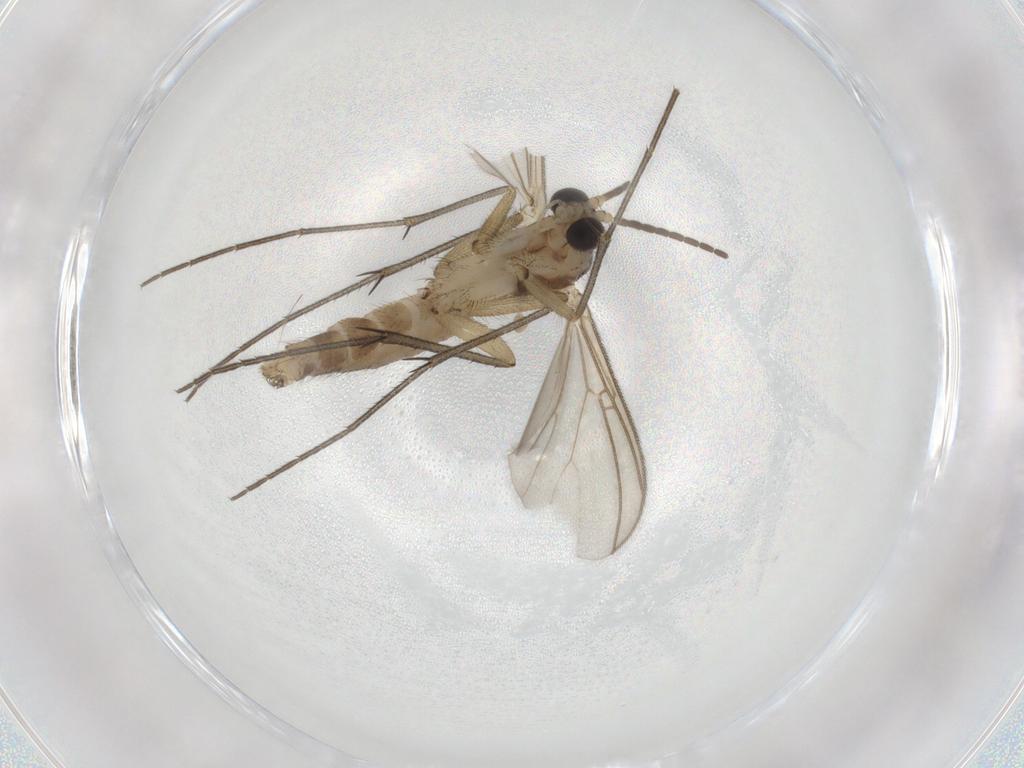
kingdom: Animalia
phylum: Arthropoda
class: Insecta
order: Diptera
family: Mycetophilidae
